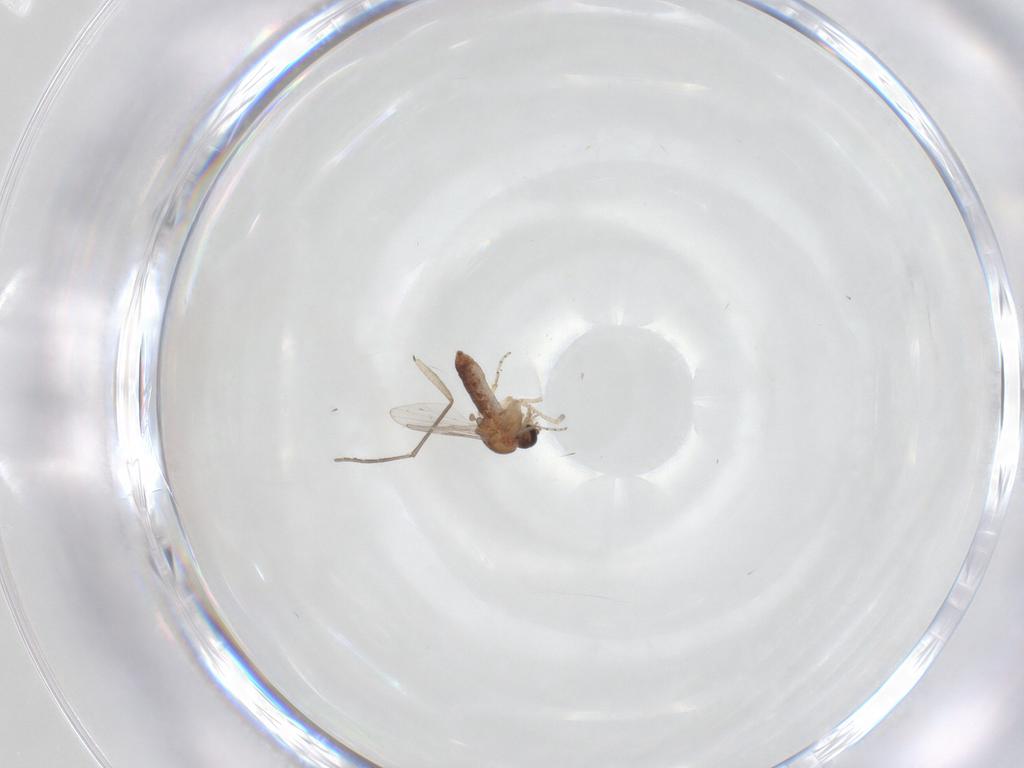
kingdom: Animalia
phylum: Arthropoda
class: Insecta
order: Diptera
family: Ceratopogonidae
